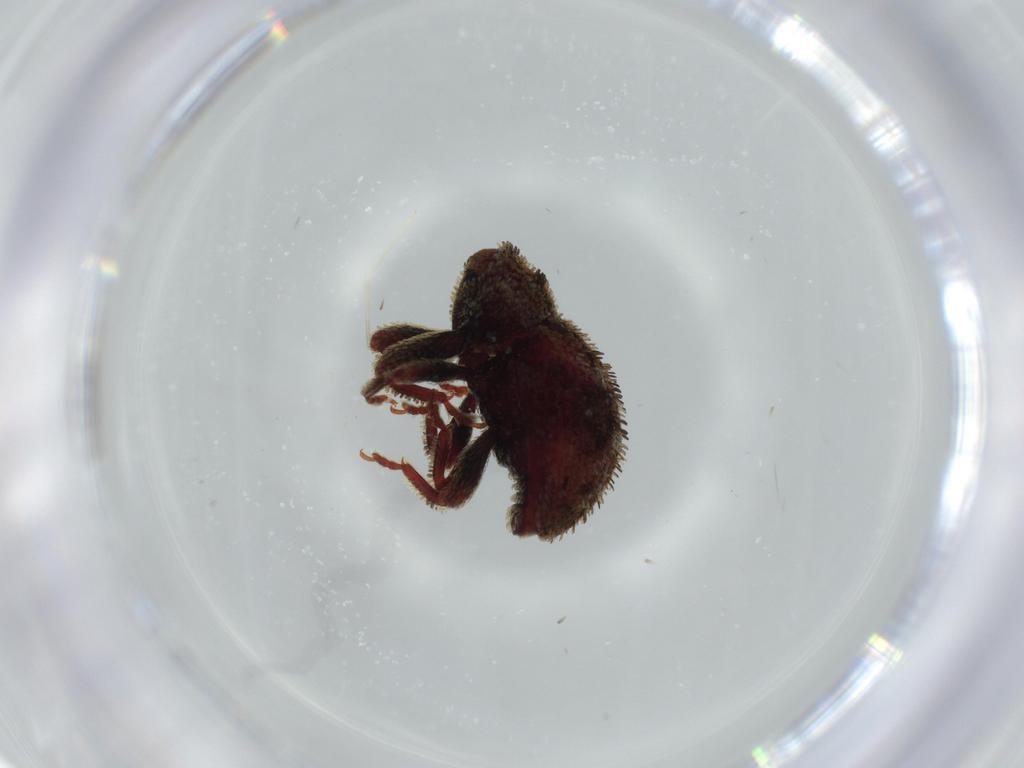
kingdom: Animalia
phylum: Arthropoda
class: Insecta
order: Coleoptera
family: Curculionidae
